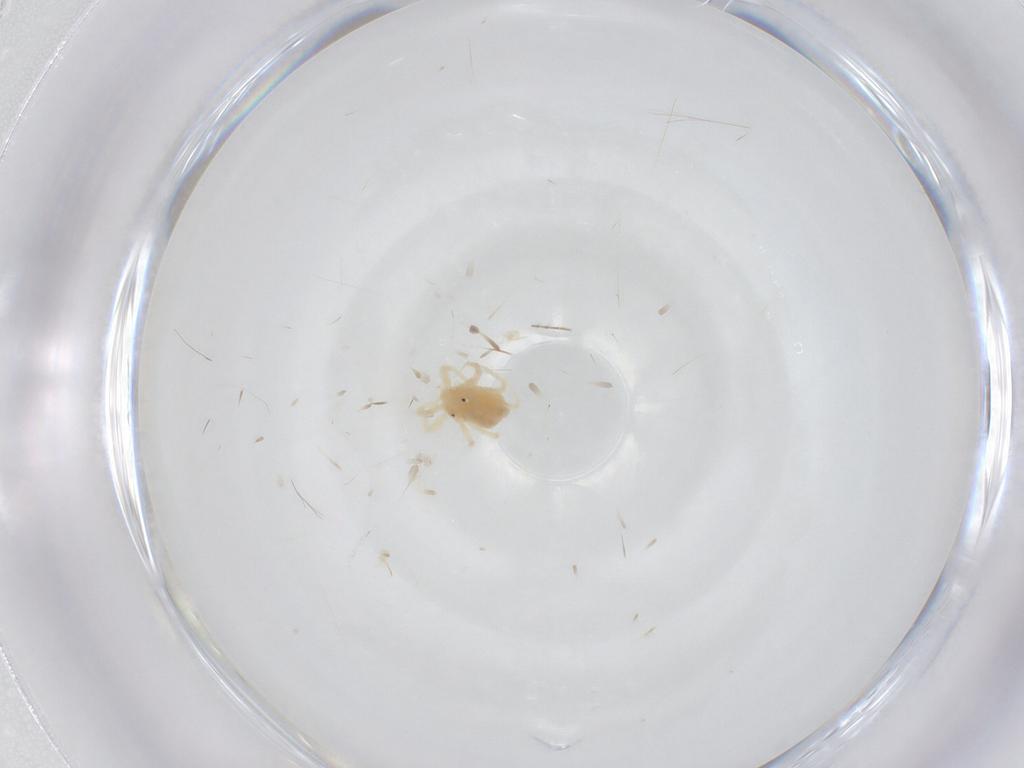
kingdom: Animalia
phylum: Arthropoda
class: Arachnida
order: Trombidiformes
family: Anystidae
